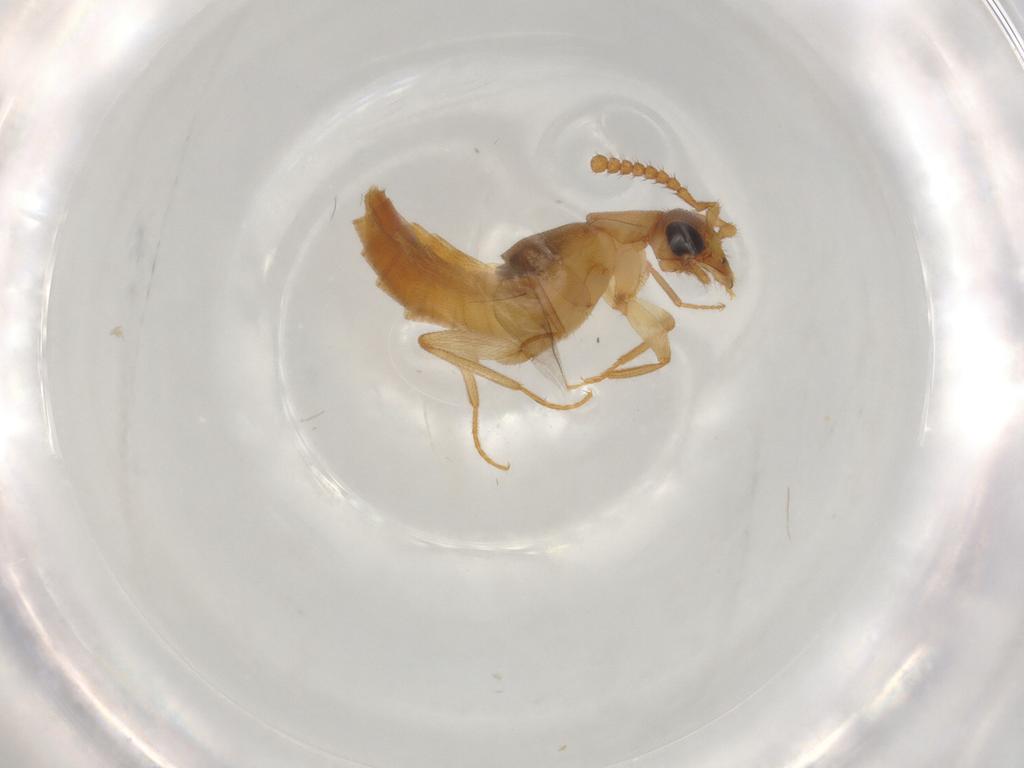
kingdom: Animalia
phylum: Arthropoda
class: Insecta
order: Coleoptera
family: Staphylinidae
